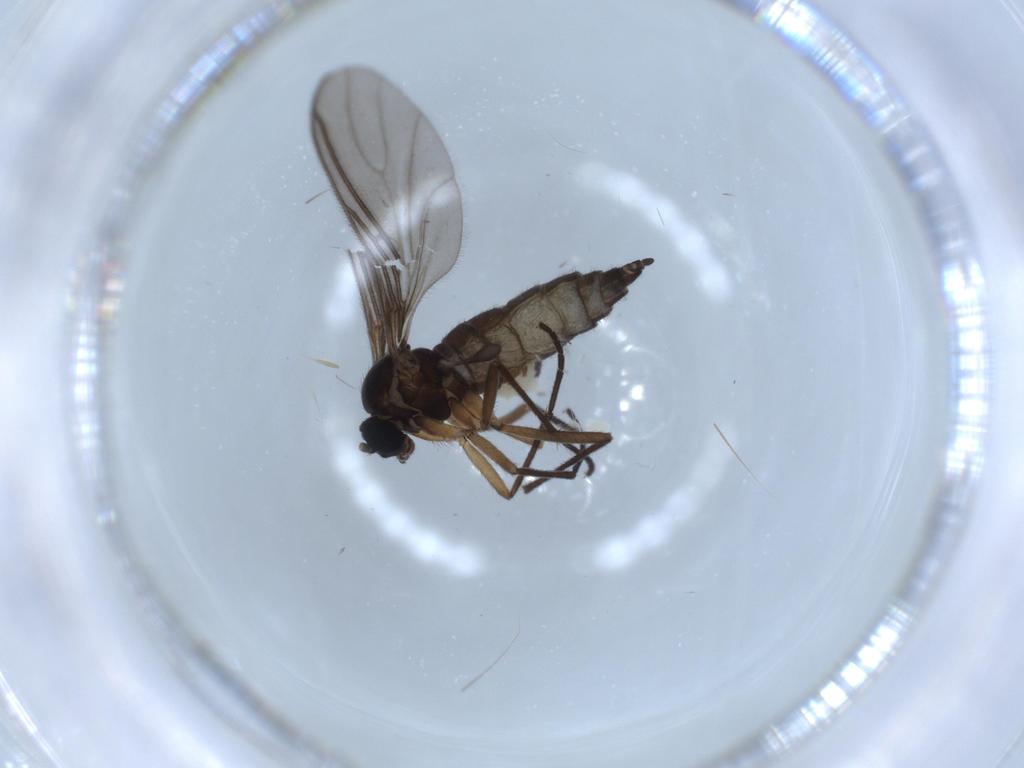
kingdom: Animalia
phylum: Arthropoda
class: Insecta
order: Diptera
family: Sciaridae
